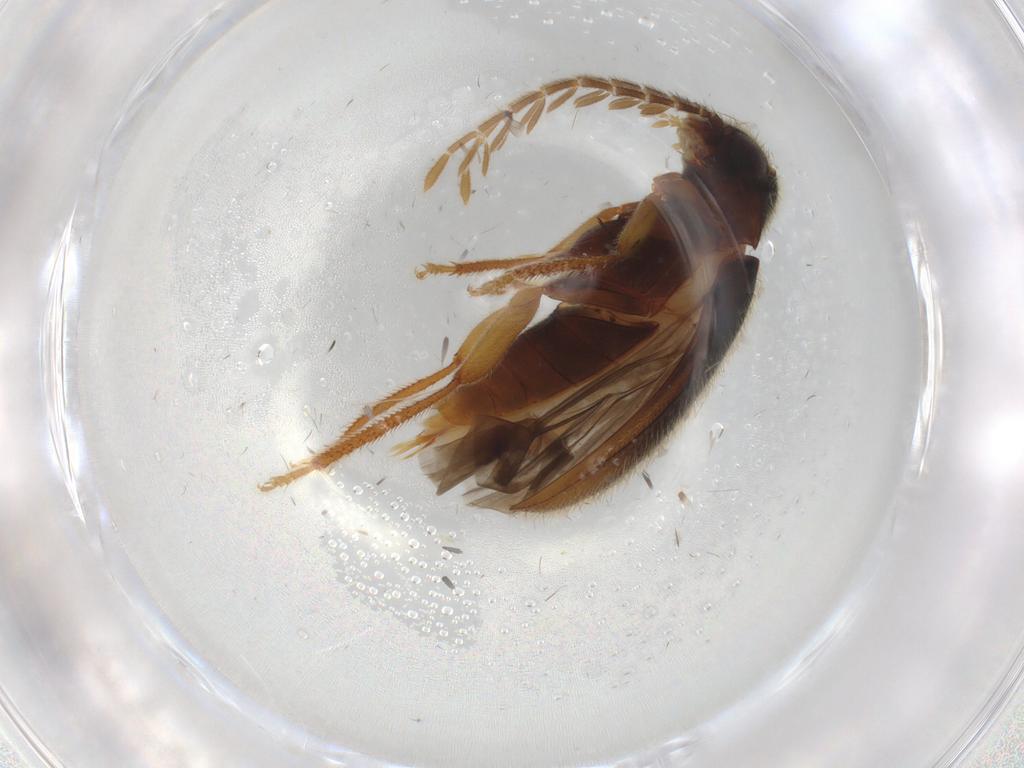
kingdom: Animalia
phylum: Arthropoda
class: Insecta
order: Coleoptera
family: Ptilodactylidae
